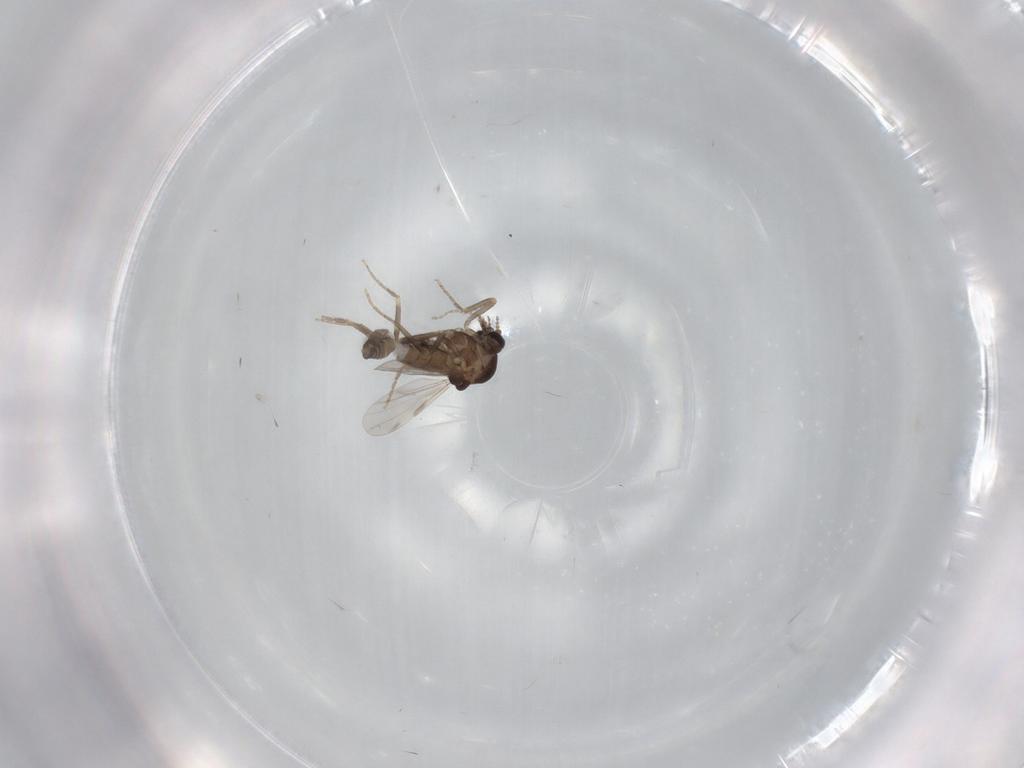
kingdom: Animalia
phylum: Arthropoda
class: Insecta
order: Diptera
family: Ceratopogonidae
